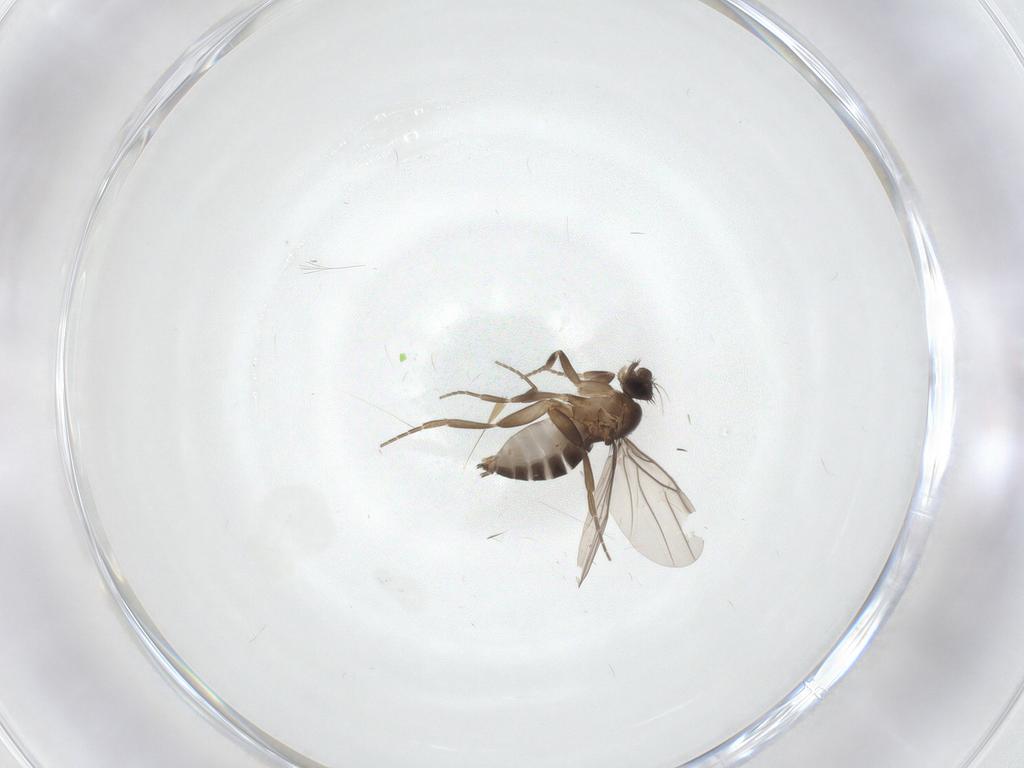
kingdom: Animalia
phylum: Arthropoda
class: Insecta
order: Diptera
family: Phoridae
